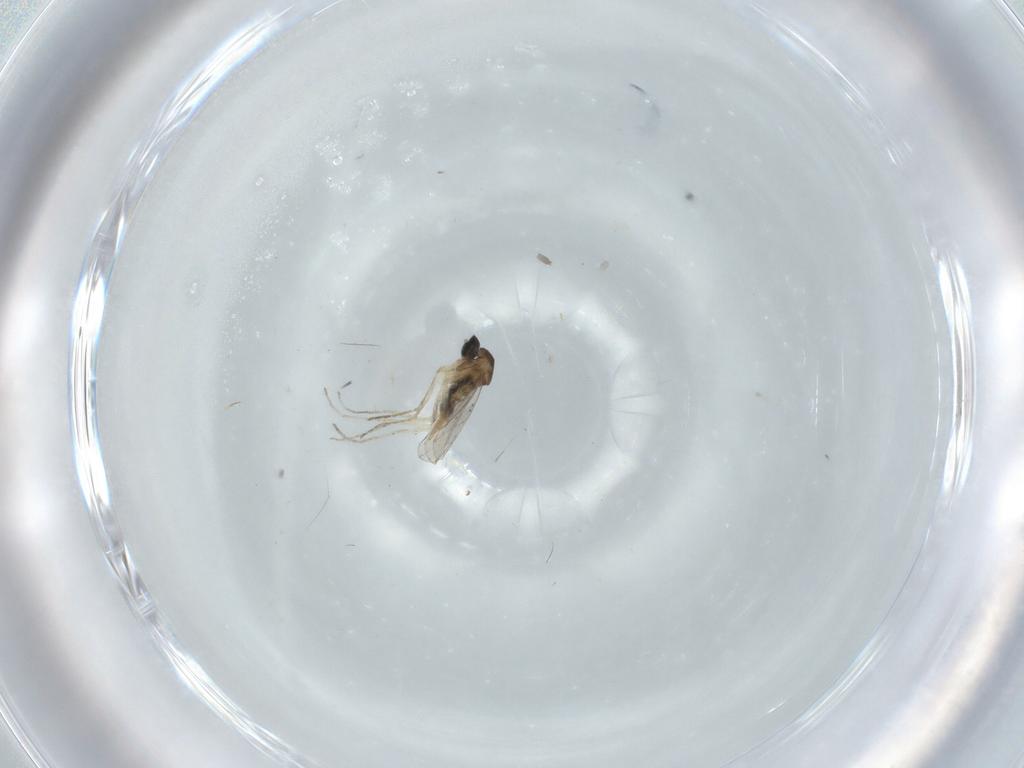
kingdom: Animalia
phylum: Arthropoda
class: Insecta
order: Diptera
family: Cecidomyiidae
